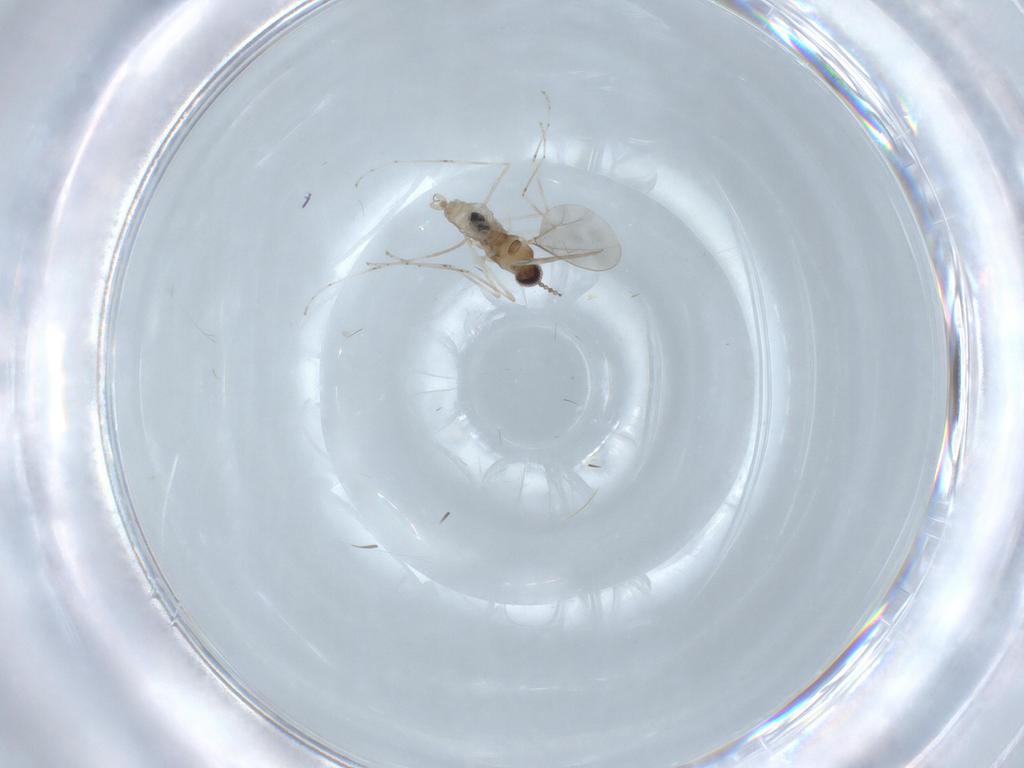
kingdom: Animalia
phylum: Arthropoda
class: Insecta
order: Diptera
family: Cecidomyiidae
